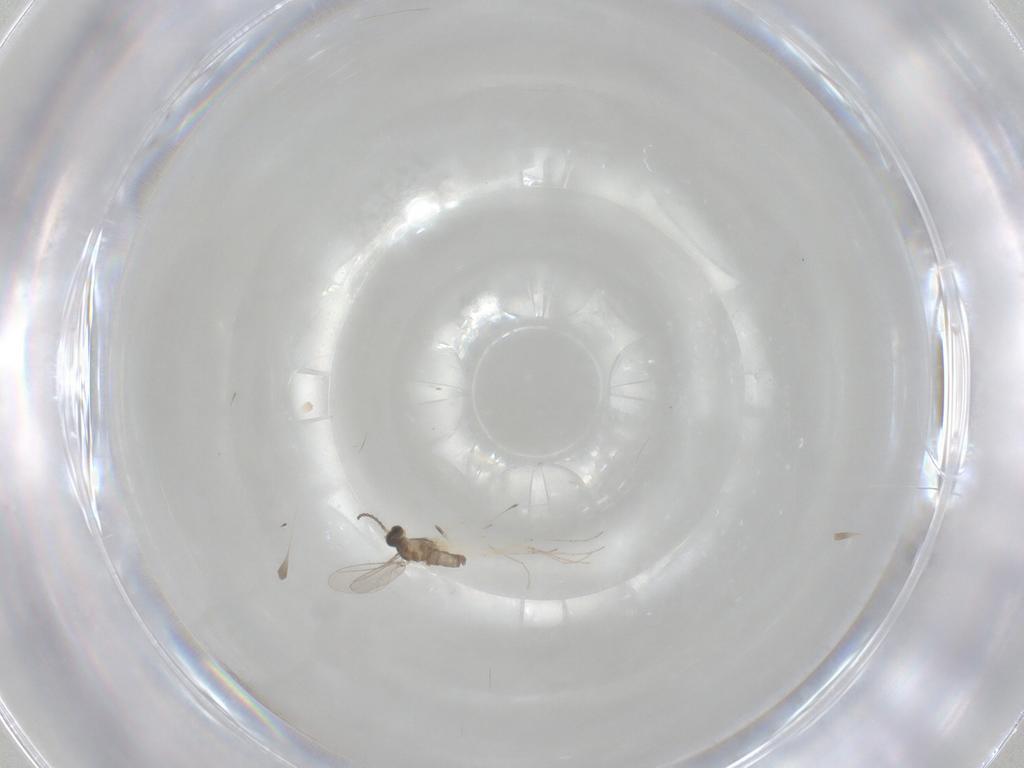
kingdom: Animalia
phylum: Arthropoda
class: Insecta
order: Diptera
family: Cecidomyiidae
